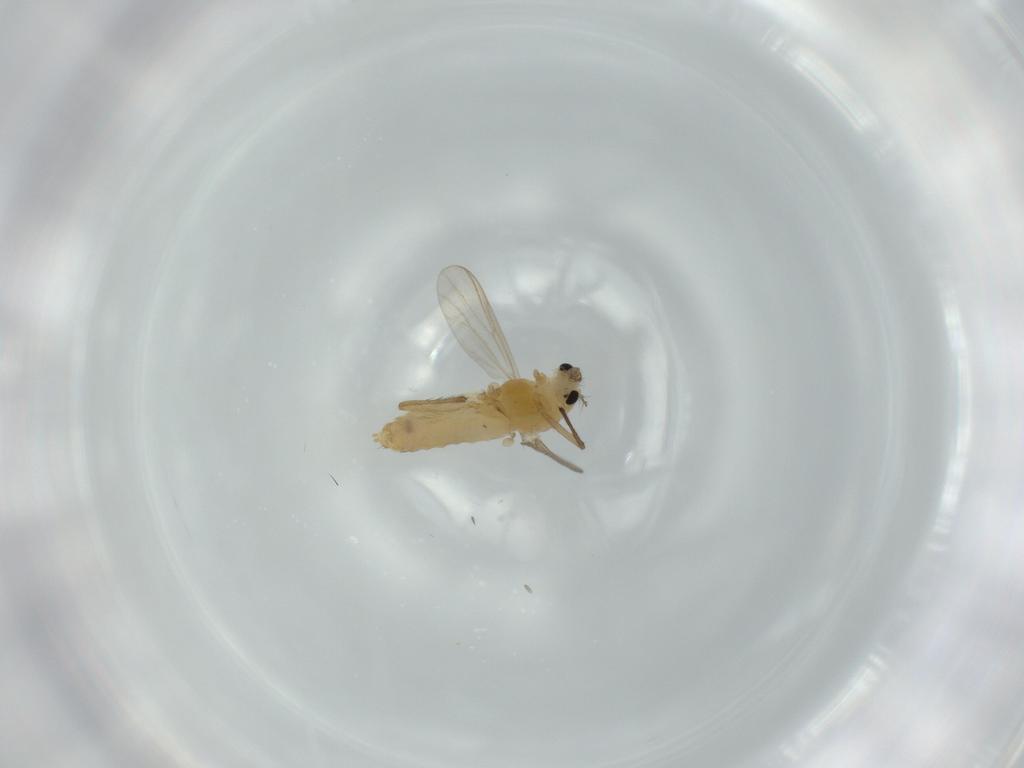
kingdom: Animalia
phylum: Arthropoda
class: Insecta
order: Diptera
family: Chironomidae
